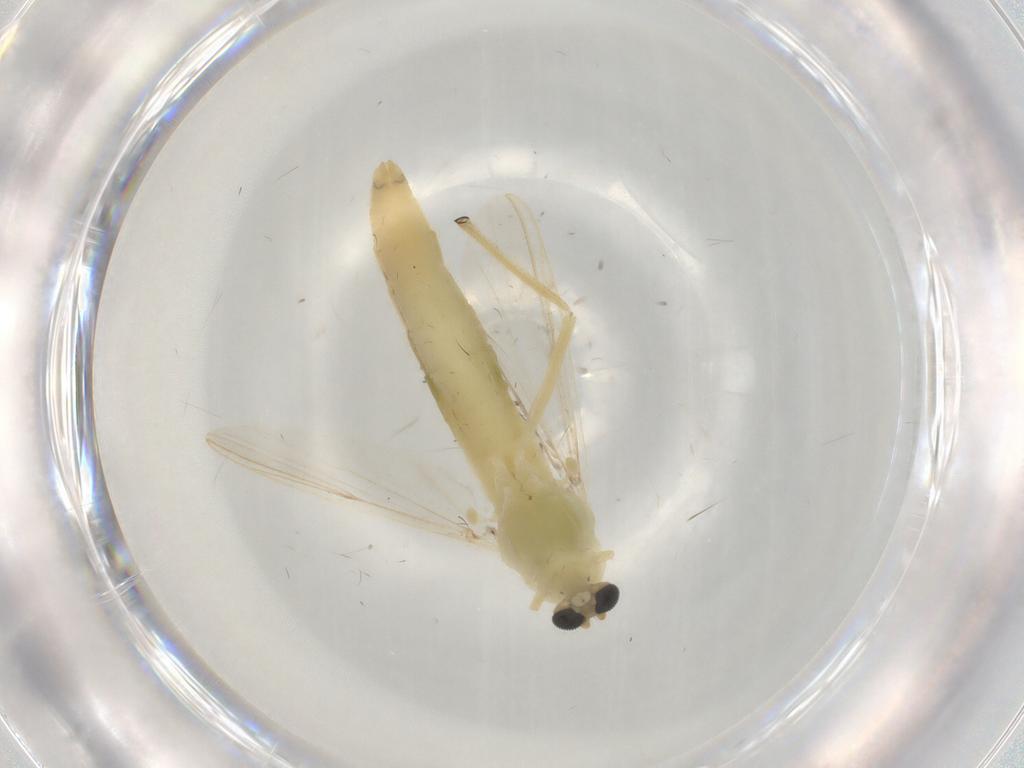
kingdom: Animalia
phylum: Arthropoda
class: Insecta
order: Diptera
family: Chironomidae
